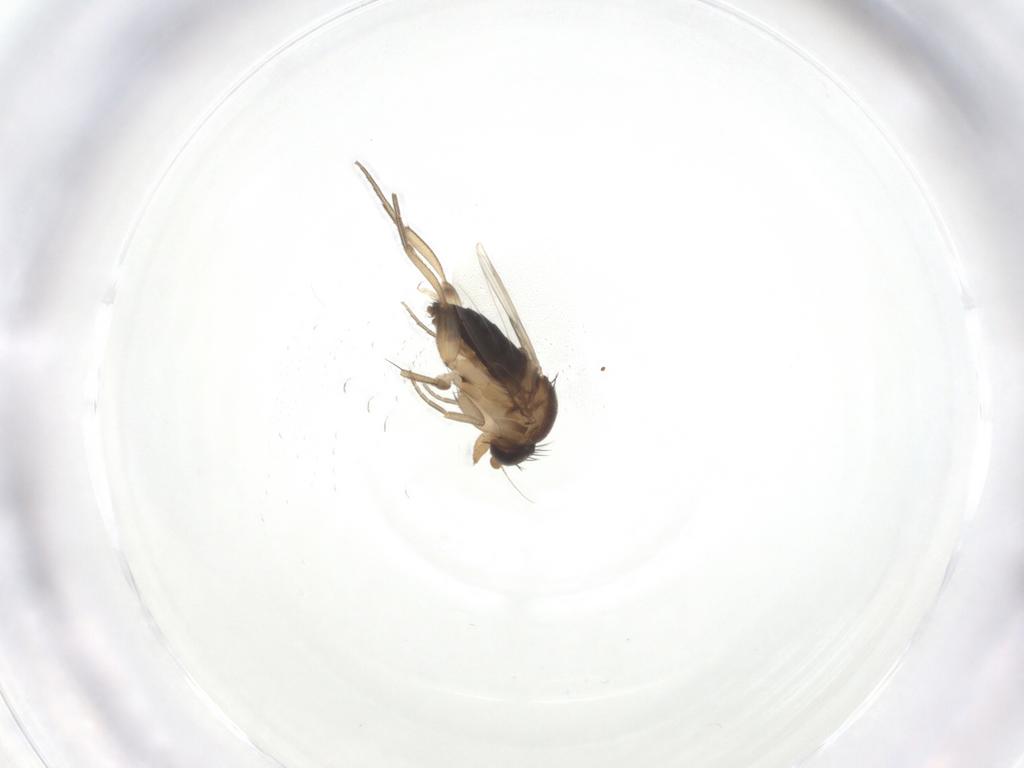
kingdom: Animalia
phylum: Arthropoda
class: Insecta
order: Diptera
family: Phoridae
